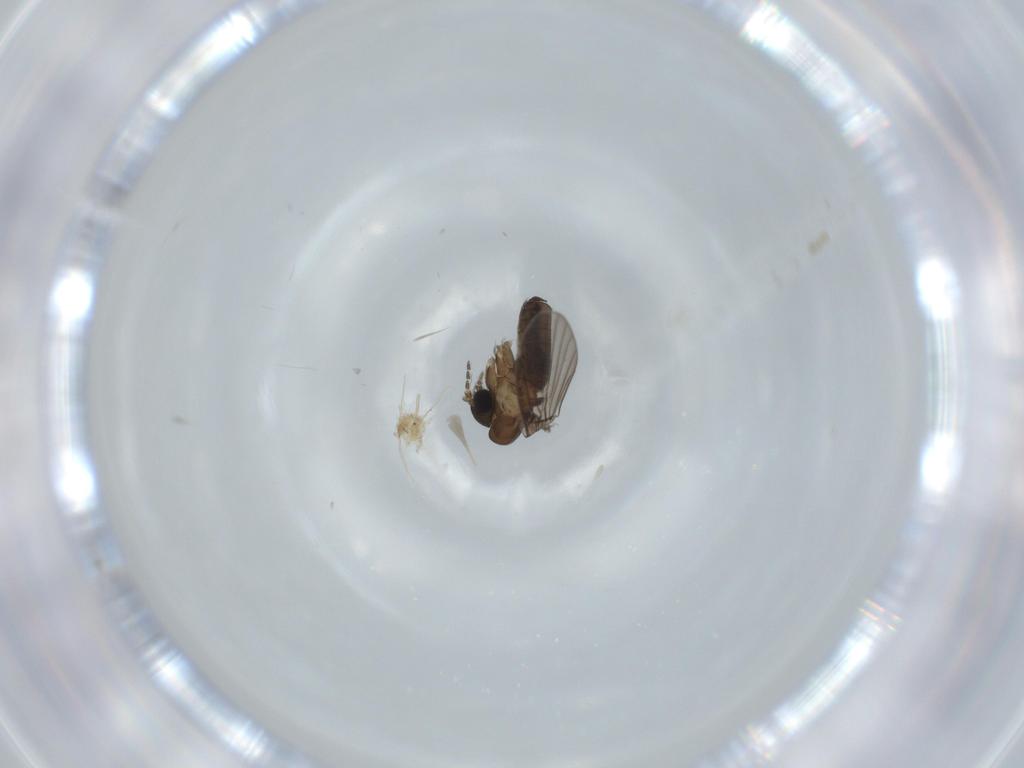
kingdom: Animalia
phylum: Arthropoda
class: Insecta
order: Diptera
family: Psychodidae
